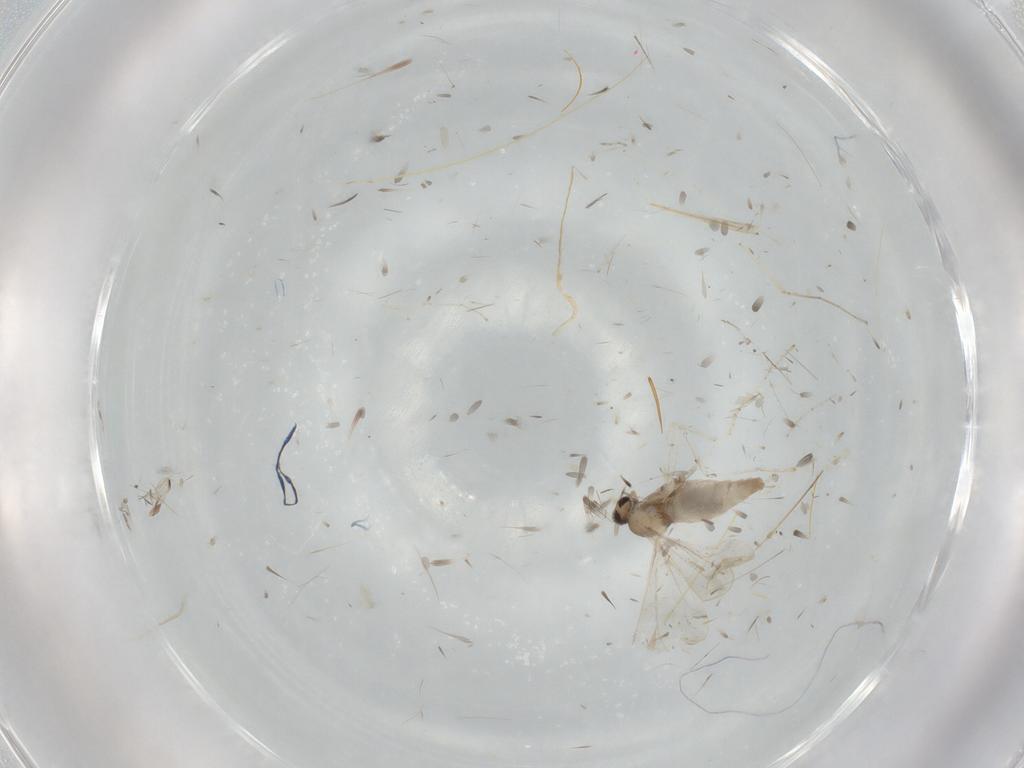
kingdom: Animalia
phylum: Arthropoda
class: Insecta
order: Diptera
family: Cecidomyiidae
